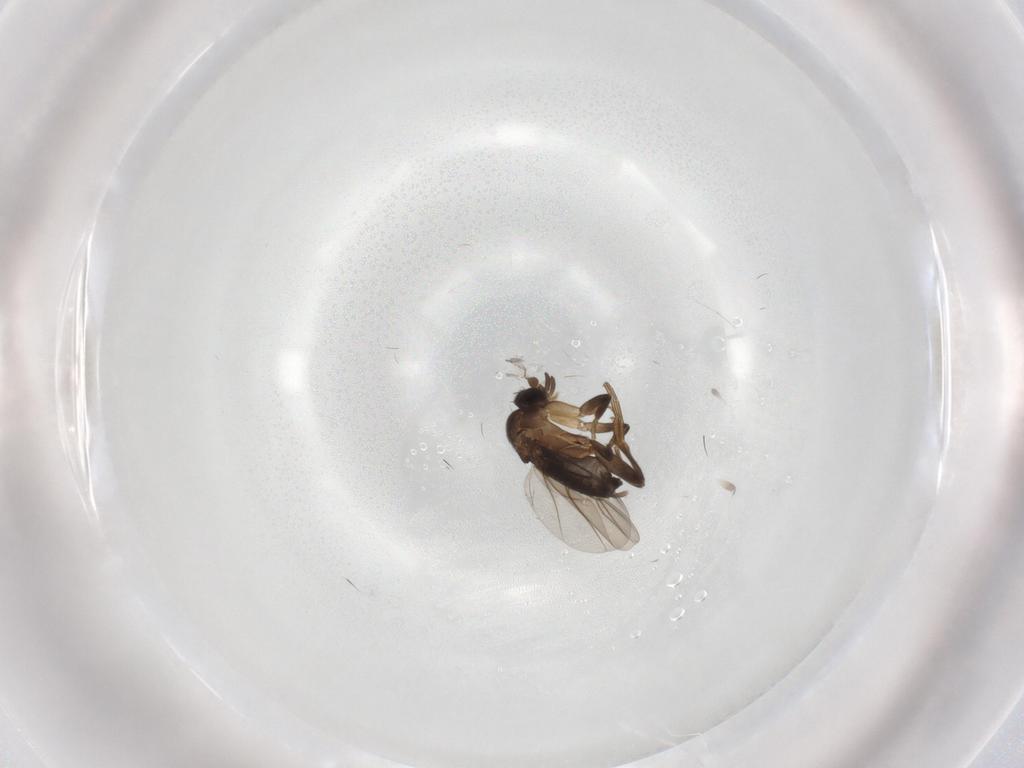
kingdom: Animalia
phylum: Arthropoda
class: Insecta
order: Diptera
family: Phoridae
